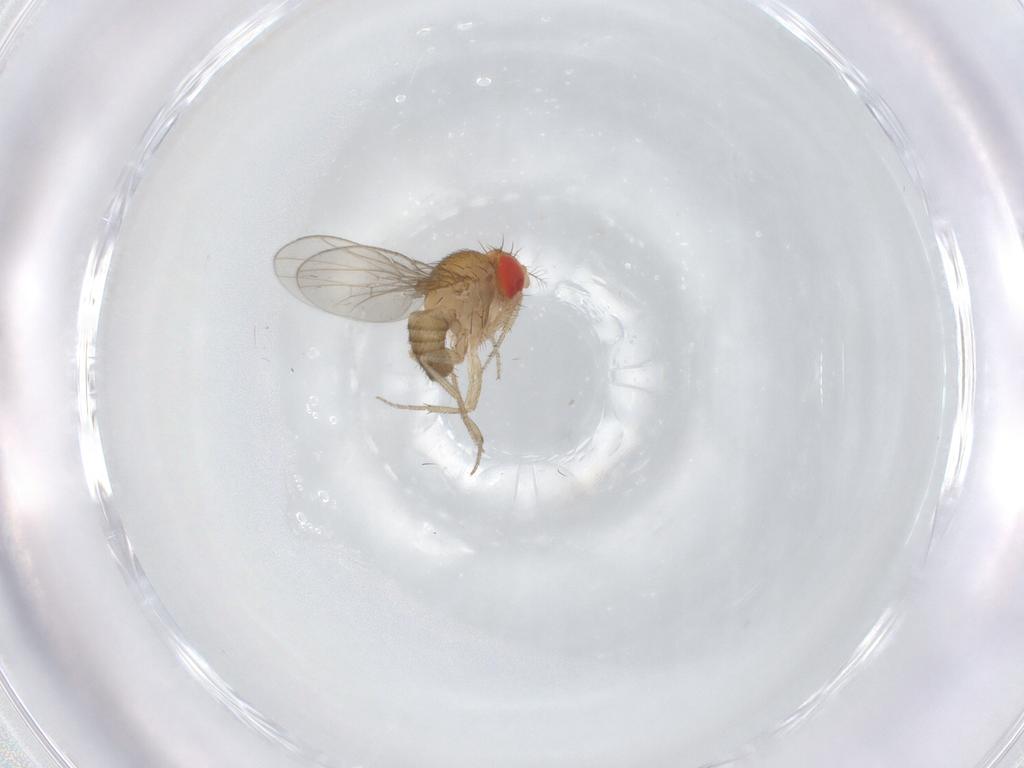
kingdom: Animalia
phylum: Arthropoda
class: Insecta
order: Diptera
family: Drosophilidae
